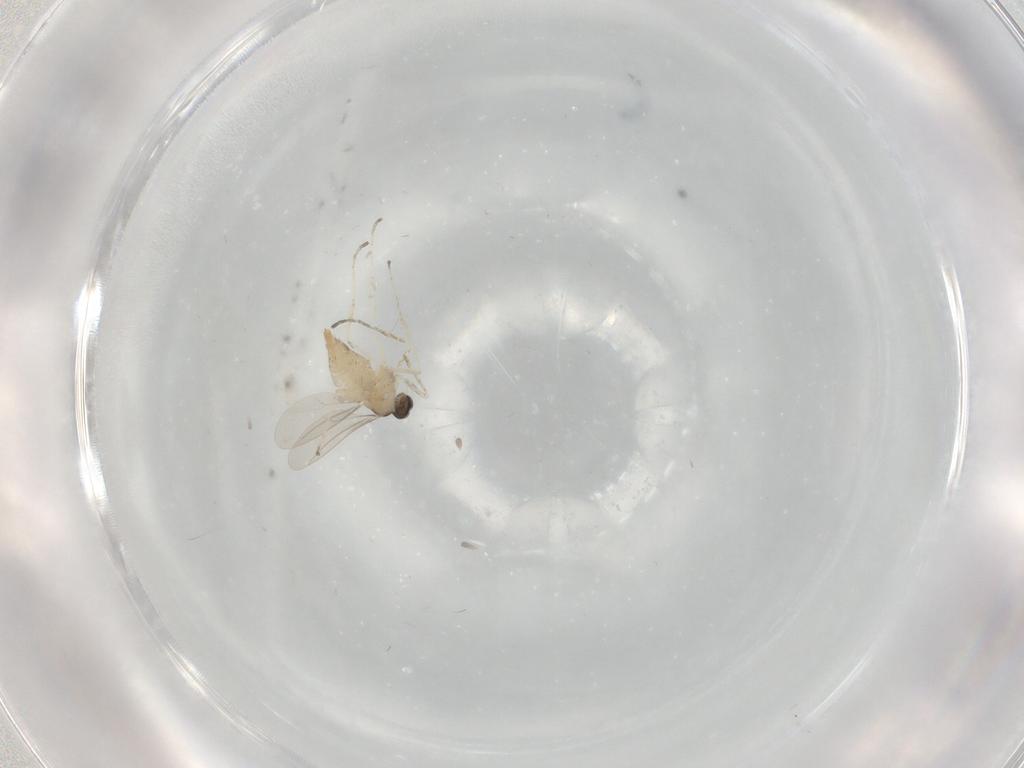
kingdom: Animalia
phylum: Arthropoda
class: Insecta
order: Diptera
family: Cecidomyiidae
